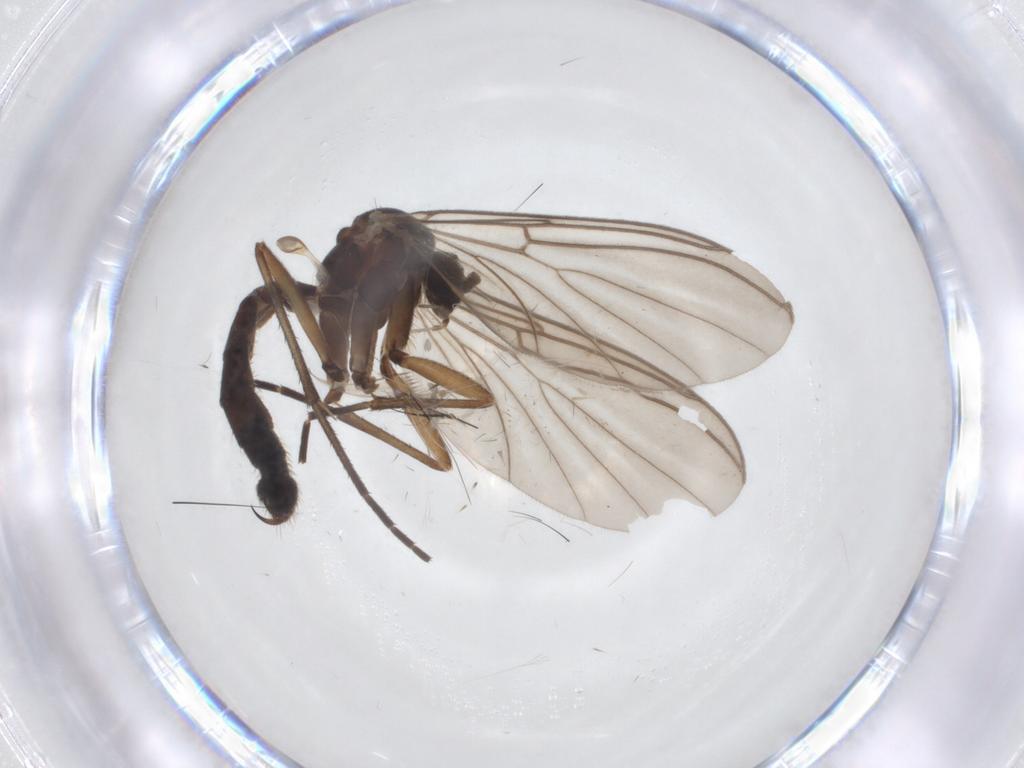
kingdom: Animalia
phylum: Arthropoda
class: Insecta
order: Diptera
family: Mycetophilidae
